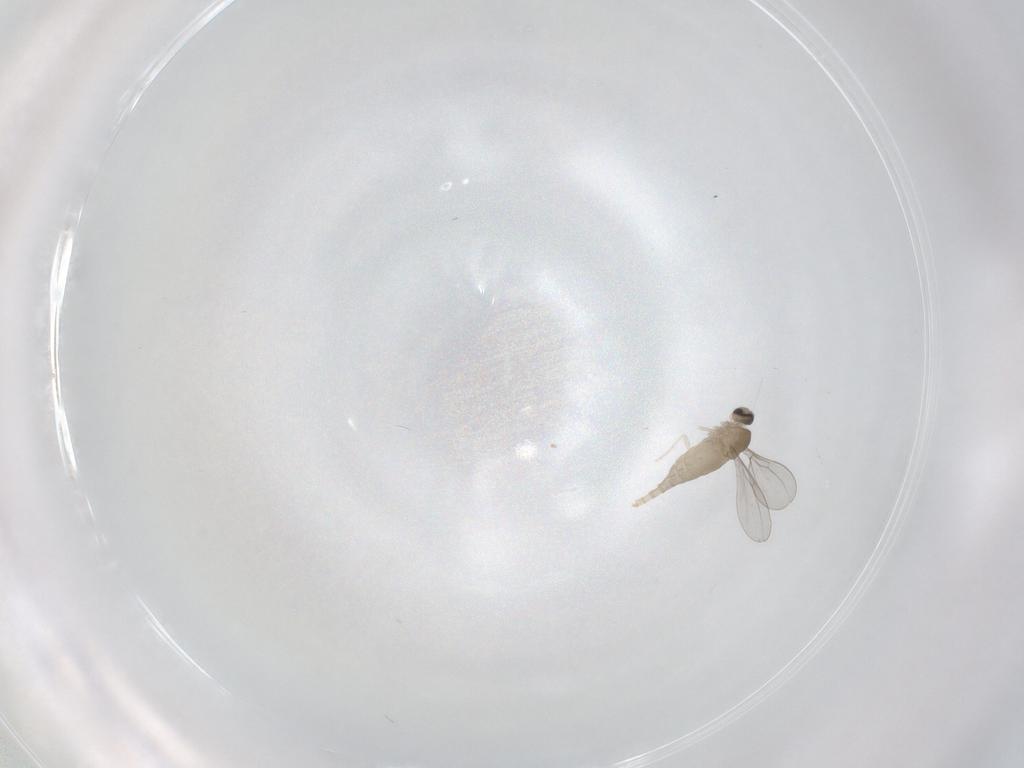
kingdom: Animalia
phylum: Arthropoda
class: Insecta
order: Diptera
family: Cecidomyiidae
